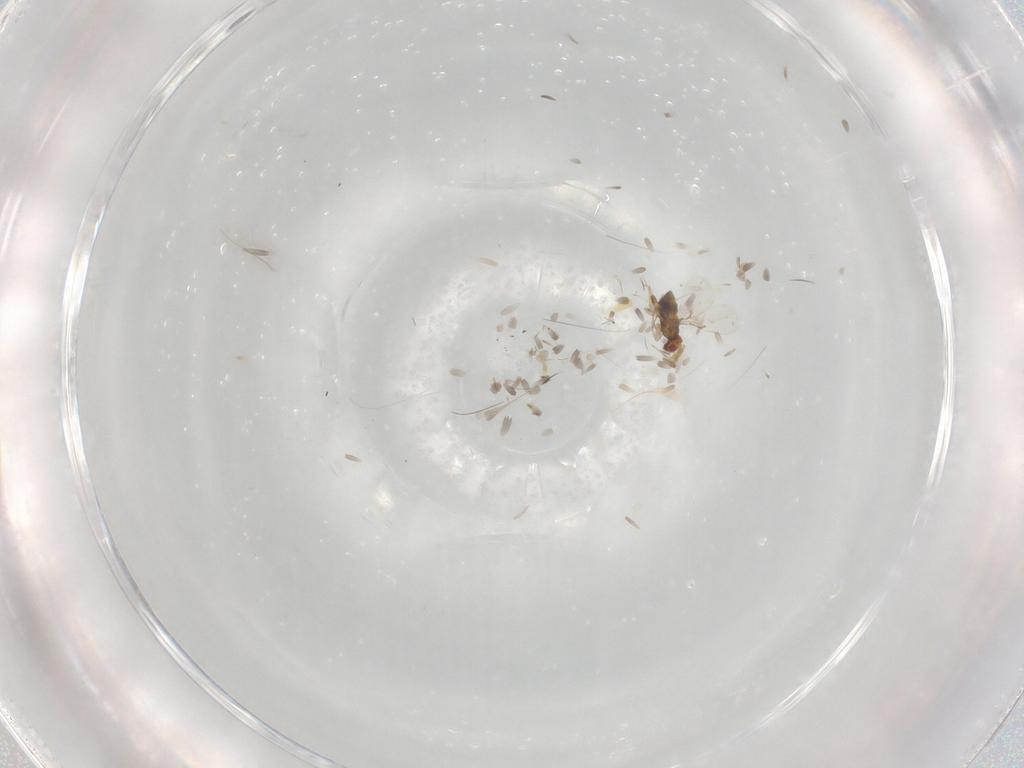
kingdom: Animalia
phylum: Arthropoda
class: Insecta
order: Hymenoptera
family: Trichogrammatidae
